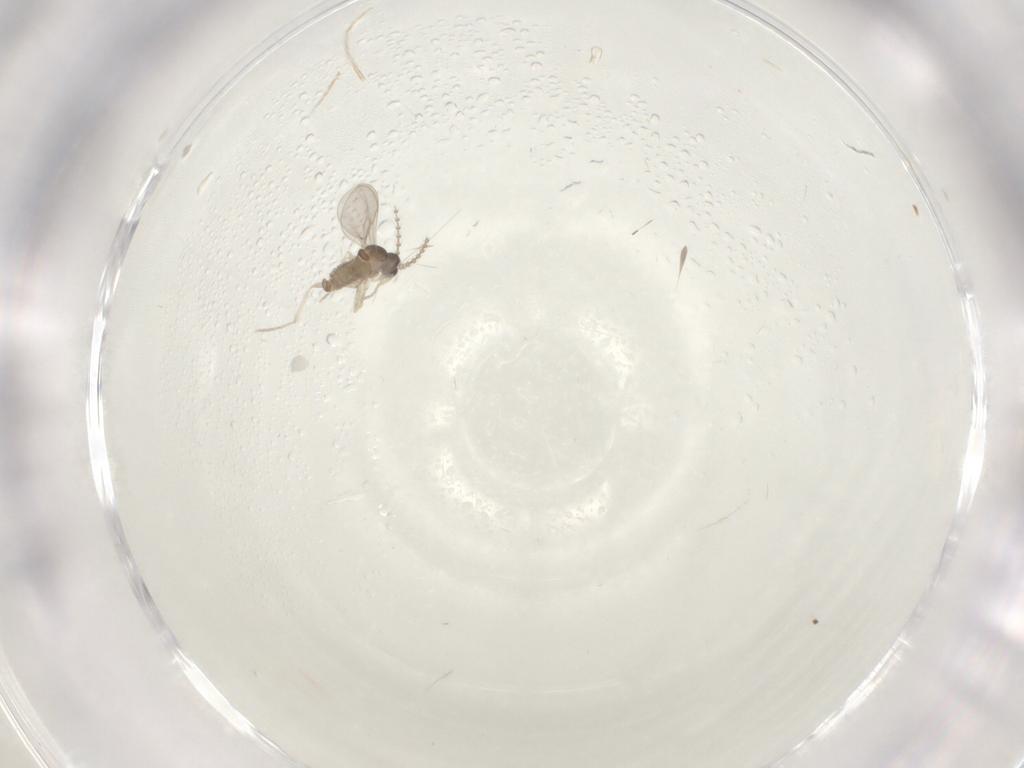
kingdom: Animalia
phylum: Arthropoda
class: Insecta
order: Diptera
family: Cecidomyiidae
